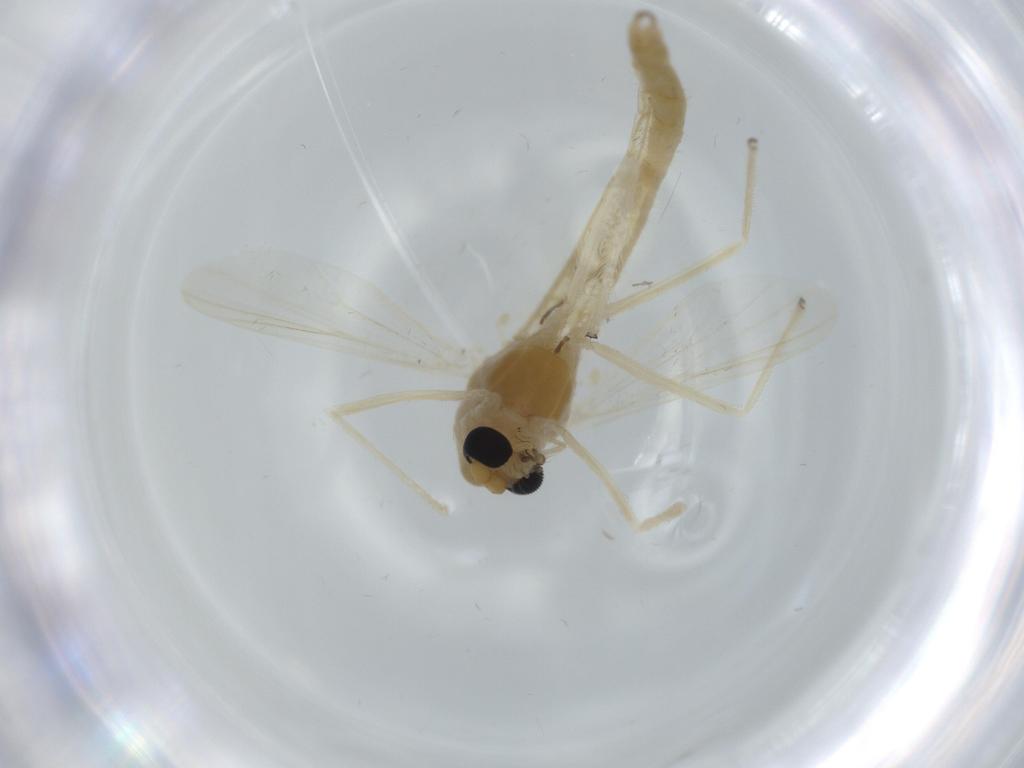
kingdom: Animalia
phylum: Arthropoda
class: Insecta
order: Diptera
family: Chironomidae
